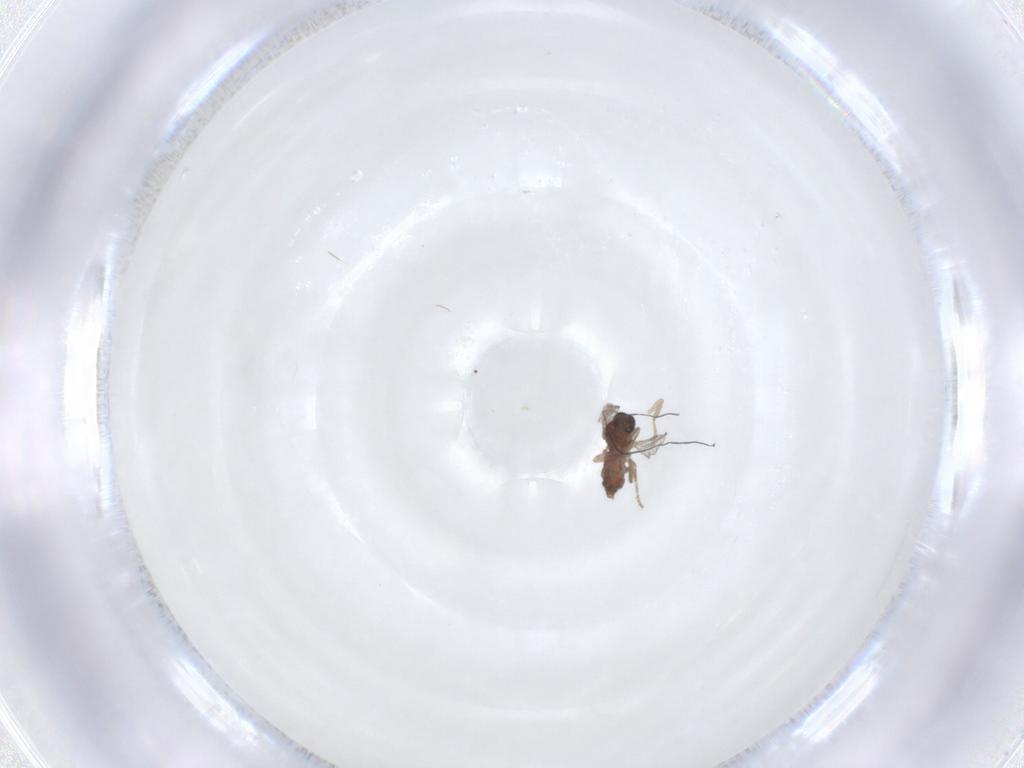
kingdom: Animalia
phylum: Arthropoda
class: Insecta
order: Diptera
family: Ceratopogonidae
